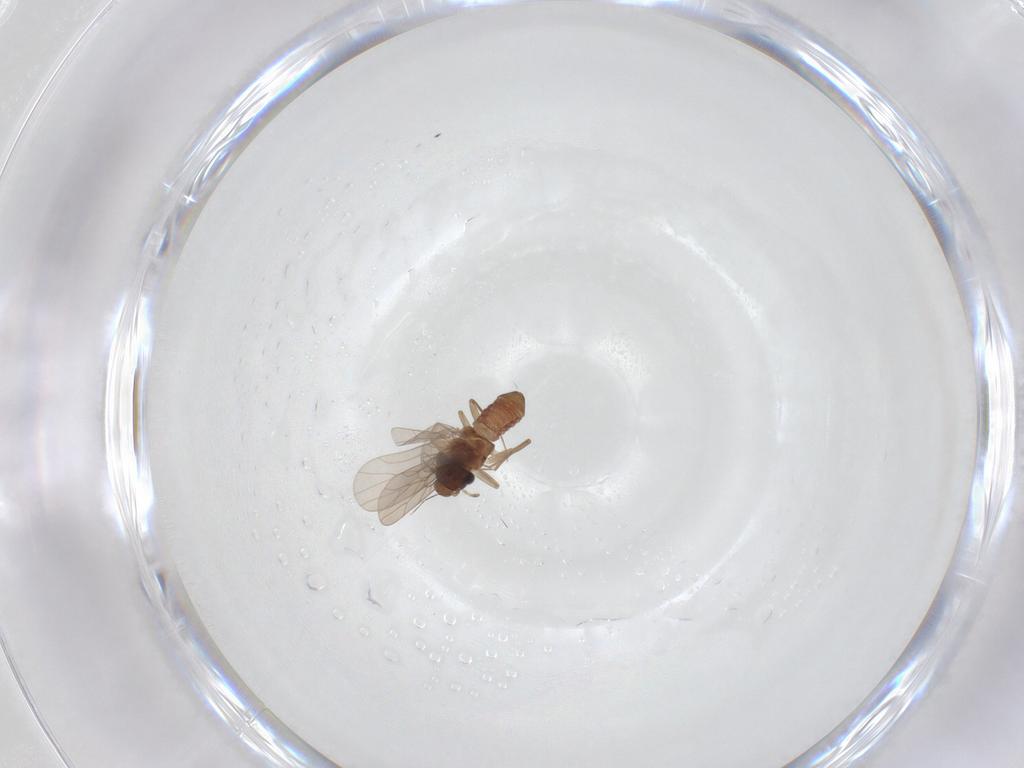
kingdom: Animalia
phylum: Arthropoda
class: Insecta
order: Psocodea
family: Lepidopsocidae
